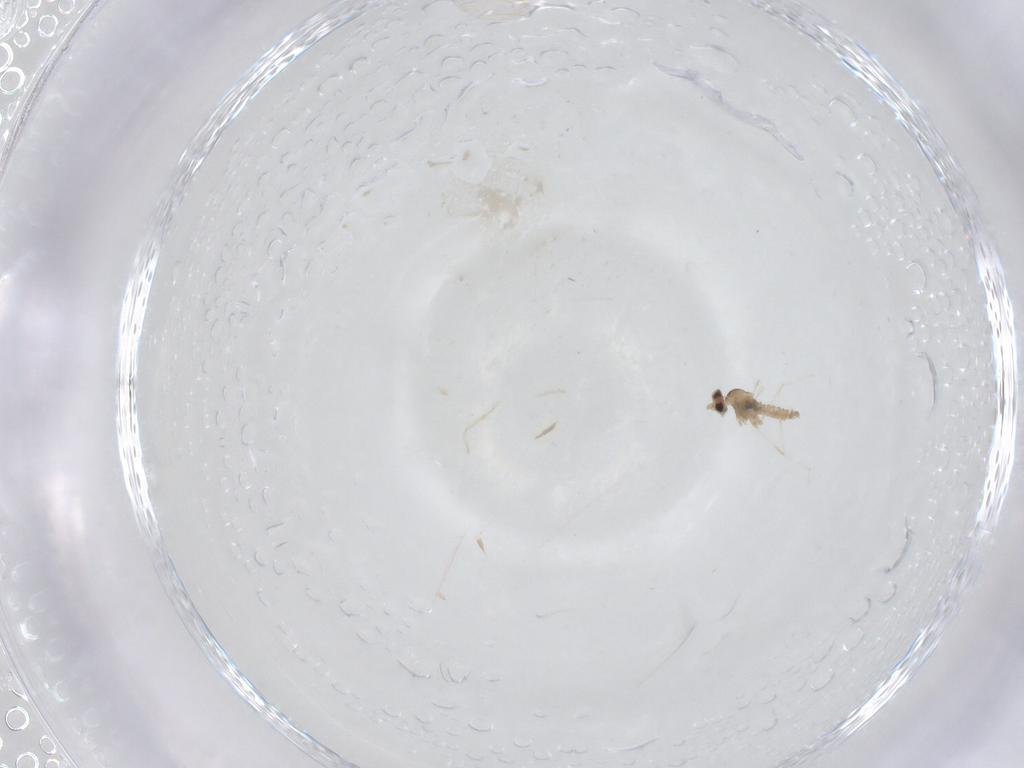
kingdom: Animalia
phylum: Arthropoda
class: Insecta
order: Diptera
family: Cecidomyiidae
